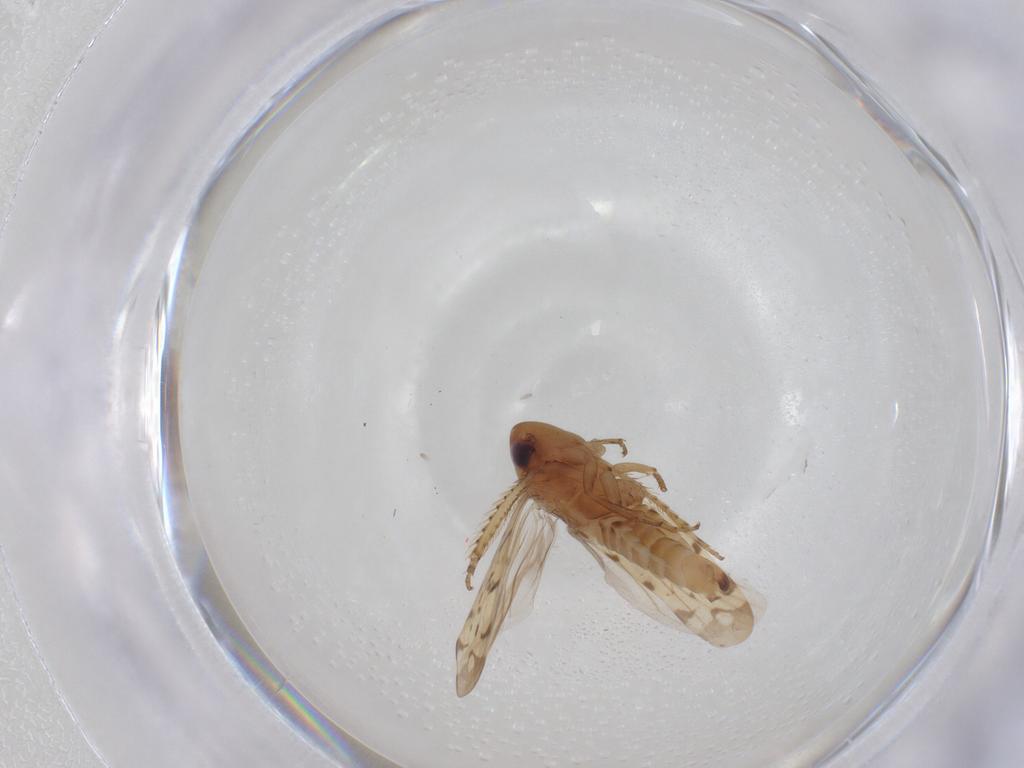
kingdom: Animalia
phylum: Arthropoda
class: Insecta
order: Hemiptera
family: Cicadellidae
